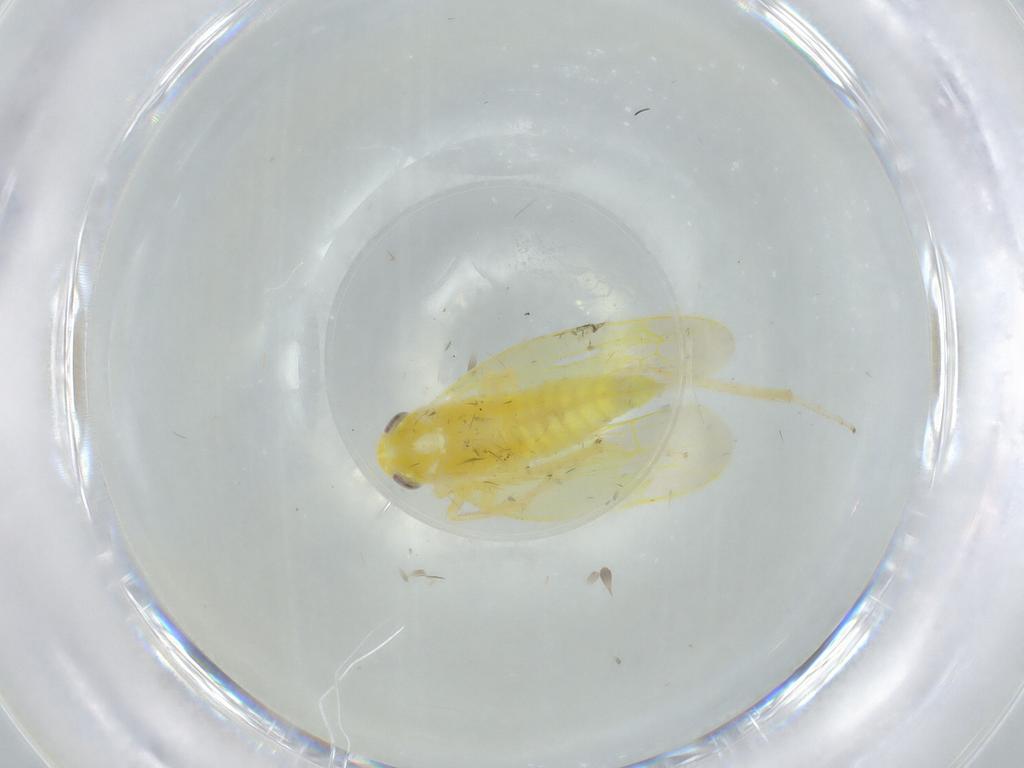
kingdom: Animalia
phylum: Arthropoda
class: Insecta
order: Hemiptera
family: Cicadellidae
